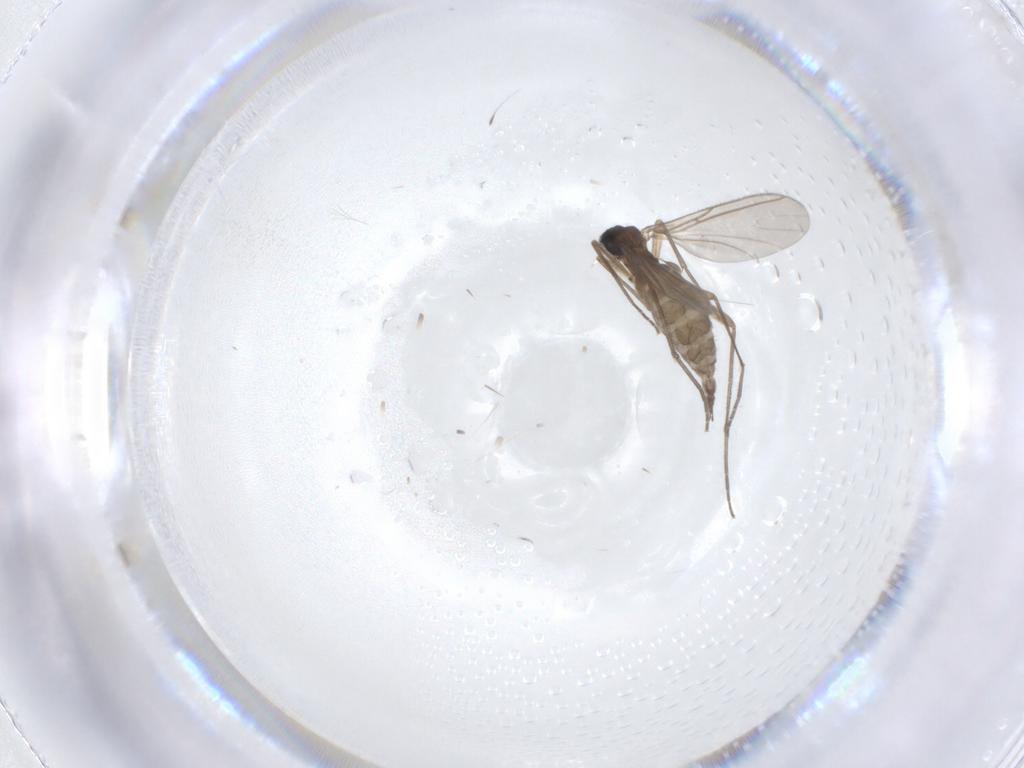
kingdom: Animalia
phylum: Arthropoda
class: Insecta
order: Diptera
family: Sciaridae
